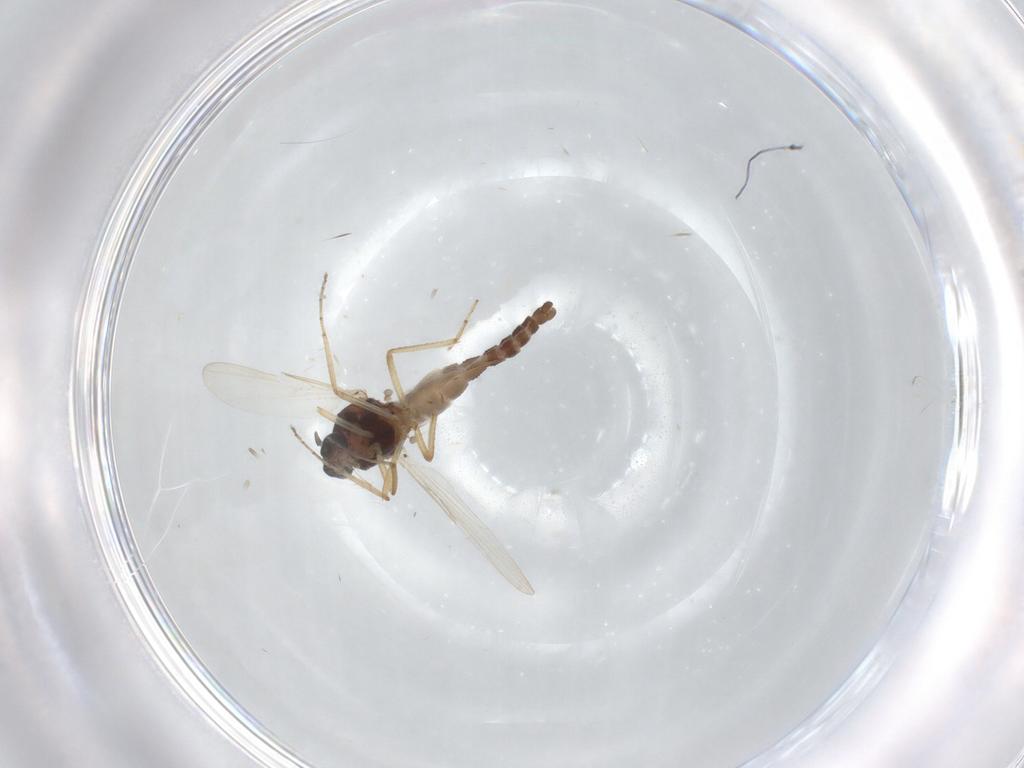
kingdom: Animalia
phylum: Arthropoda
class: Insecta
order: Diptera
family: Ceratopogonidae
